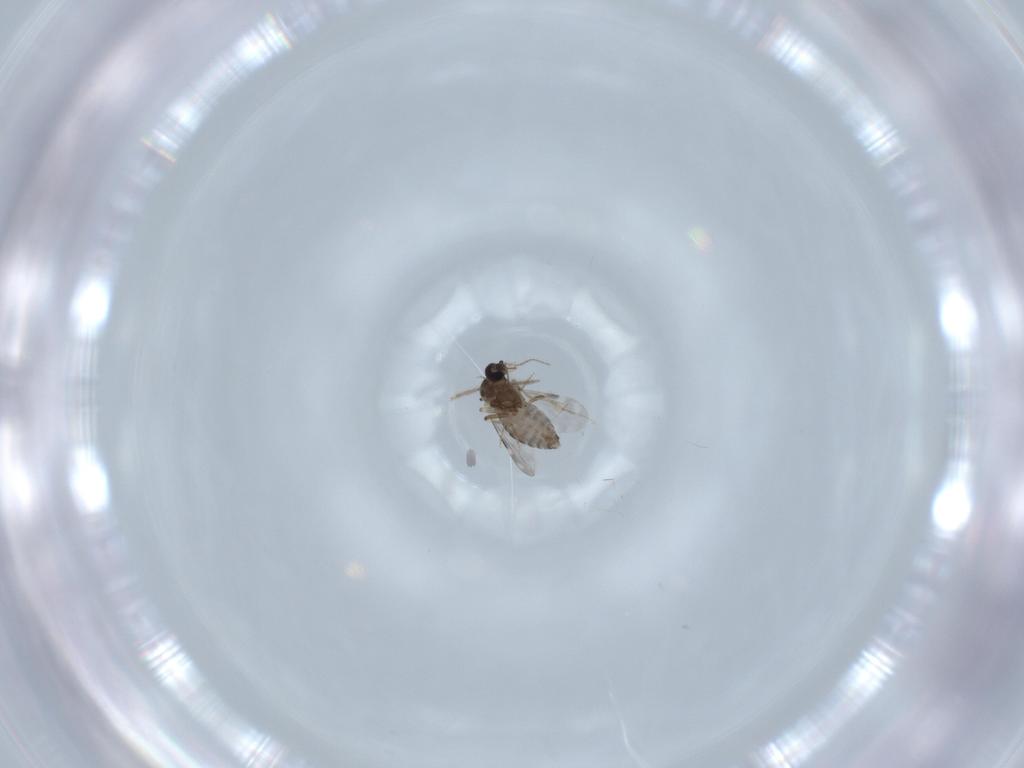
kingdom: Animalia
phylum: Arthropoda
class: Insecta
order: Diptera
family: Ceratopogonidae
